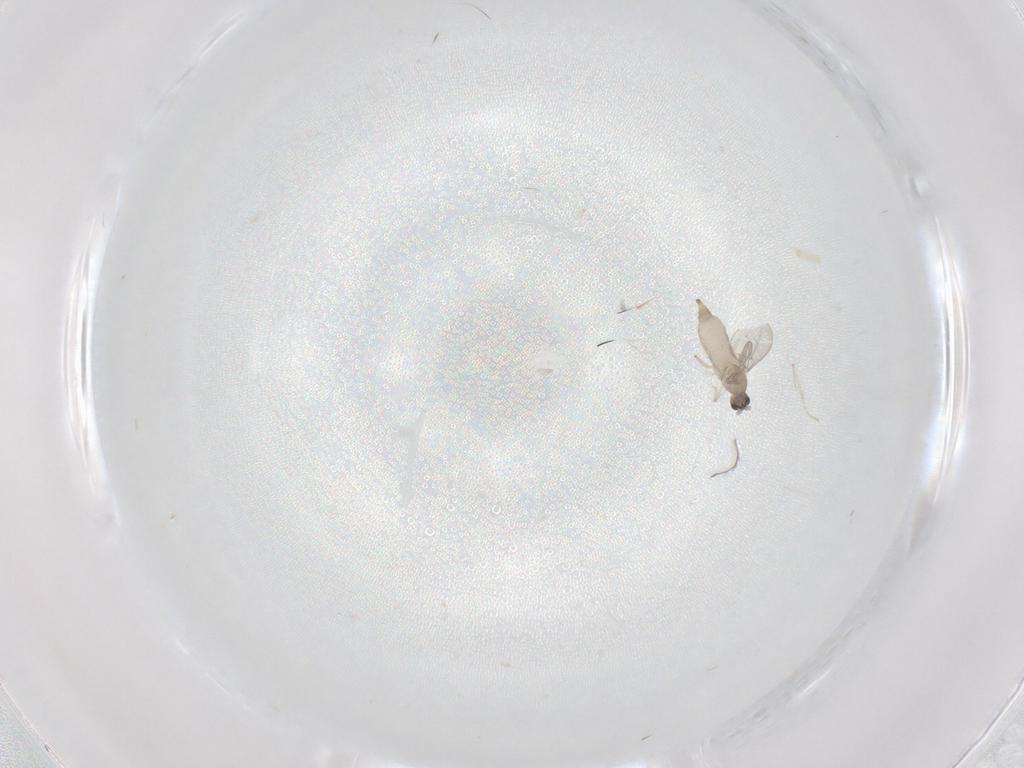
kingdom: Animalia
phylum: Arthropoda
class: Insecta
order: Diptera
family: Cecidomyiidae
